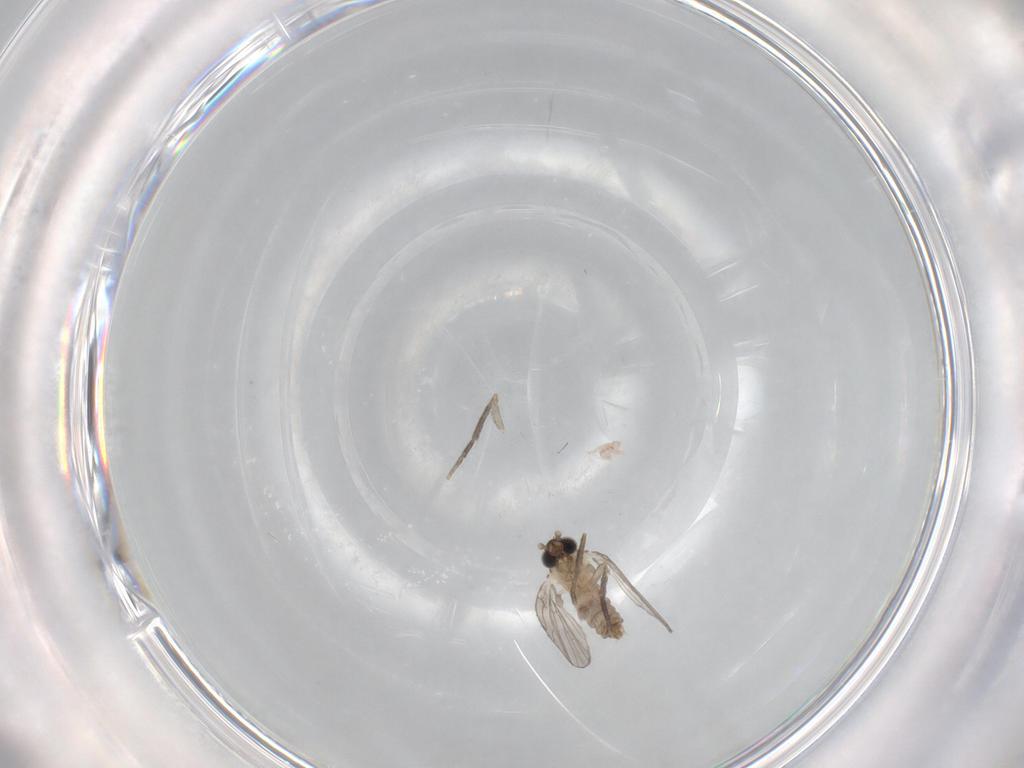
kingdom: Animalia
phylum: Arthropoda
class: Insecta
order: Diptera
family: Psychodidae
